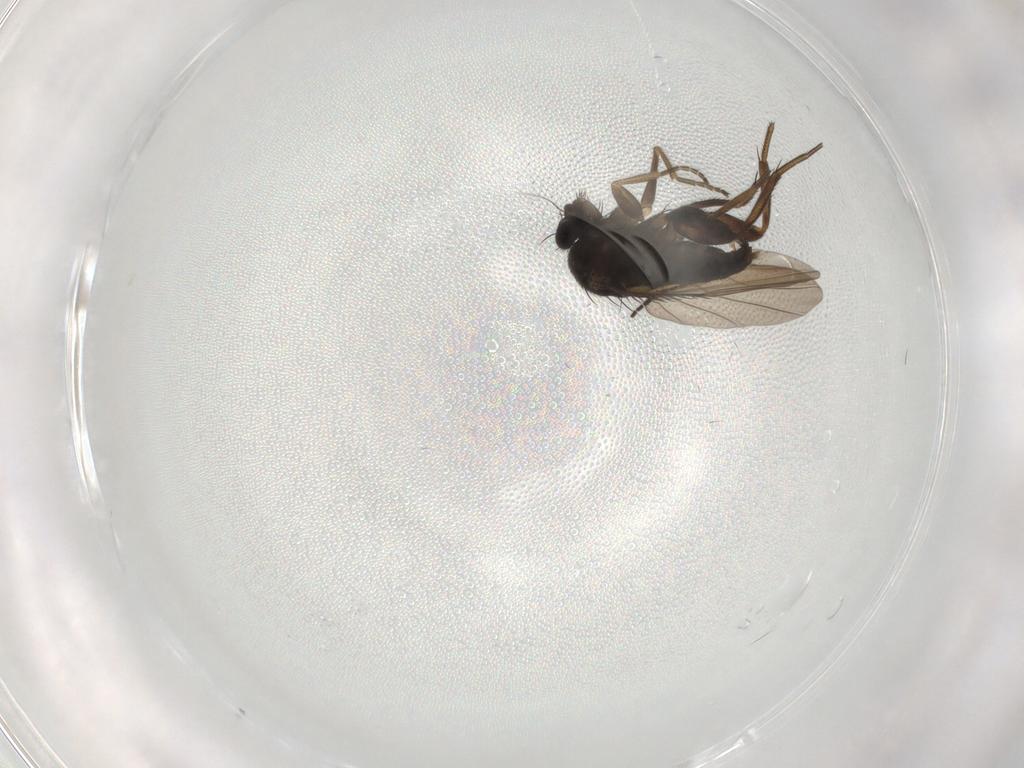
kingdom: Animalia
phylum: Arthropoda
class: Insecta
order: Diptera
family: Phoridae
